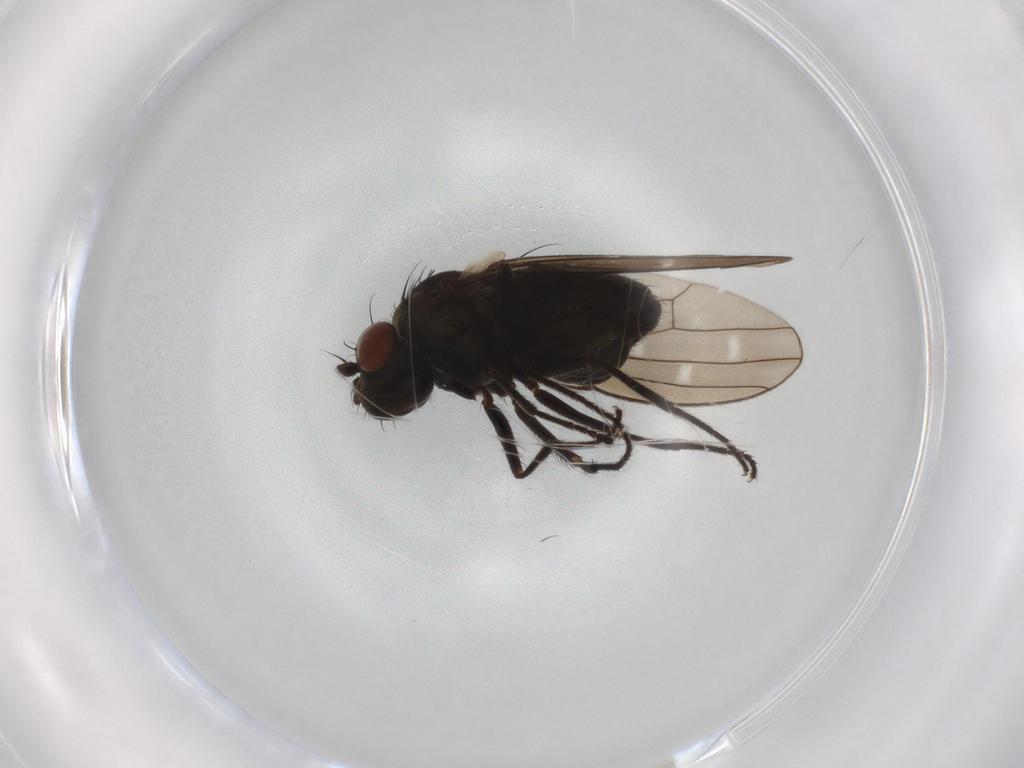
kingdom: Animalia
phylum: Arthropoda
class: Insecta
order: Diptera
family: Ephydridae
